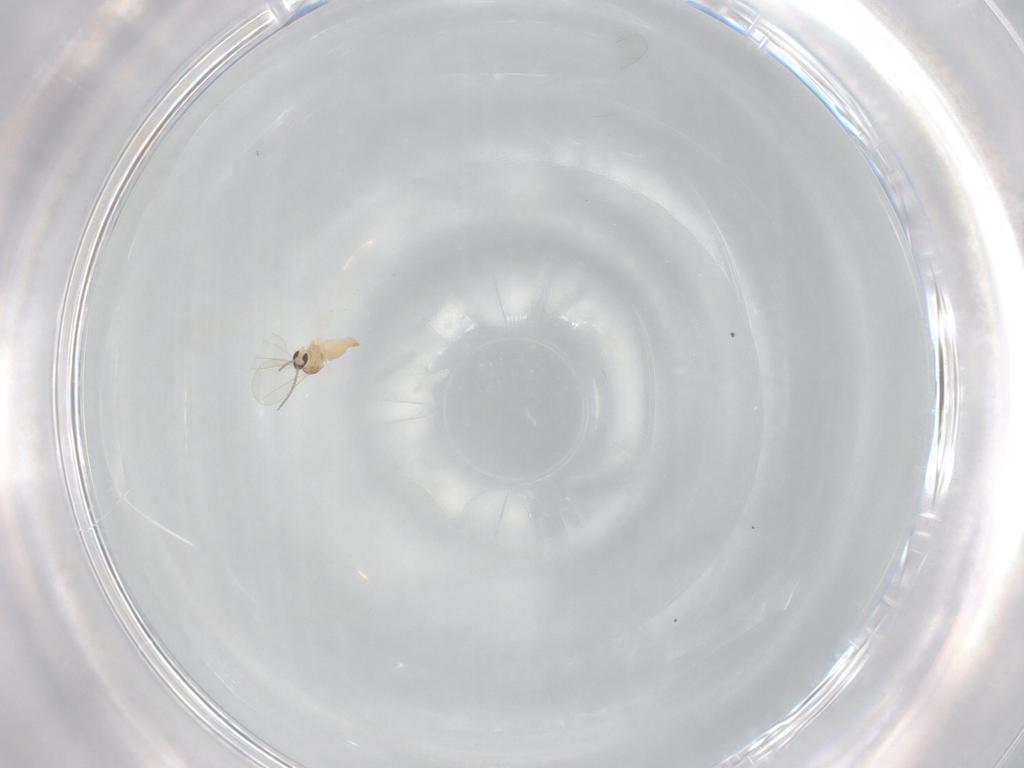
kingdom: Animalia
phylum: Arthropoda
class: Insecta
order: Diptera
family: Cecidomyiidae
